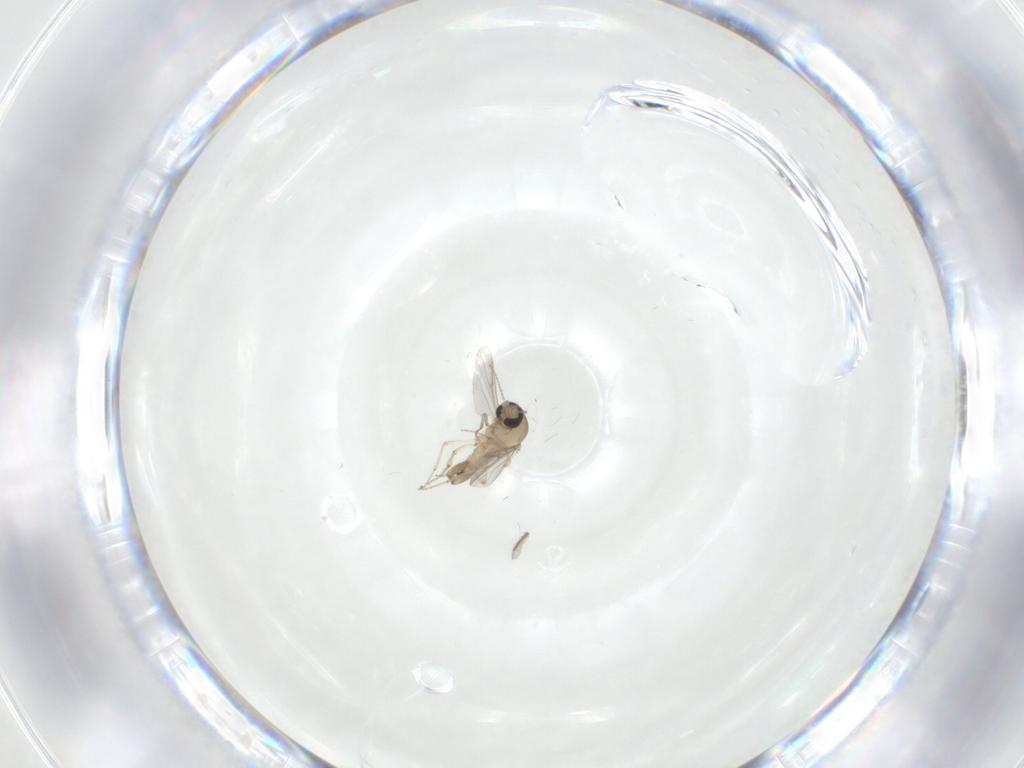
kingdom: Animalia
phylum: Arthropoda
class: Insecta
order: Diptera
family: Ceratopogonidae
